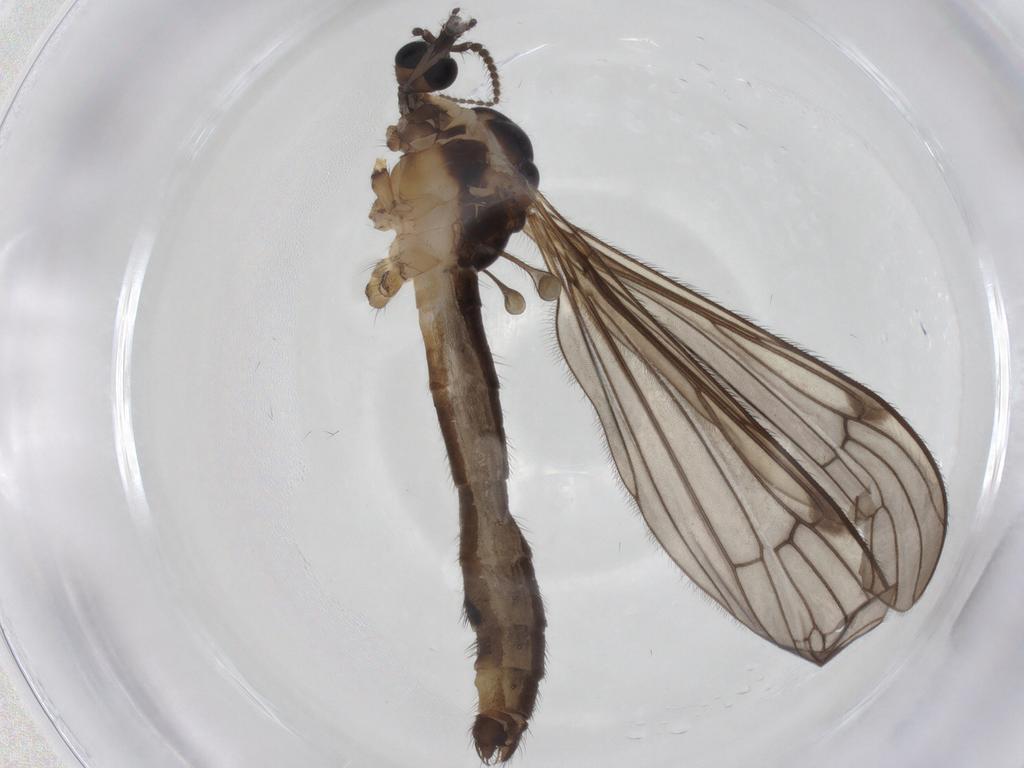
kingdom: Animalia
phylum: Arthropoda
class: Insecta
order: Diptera
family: Limoniidae
